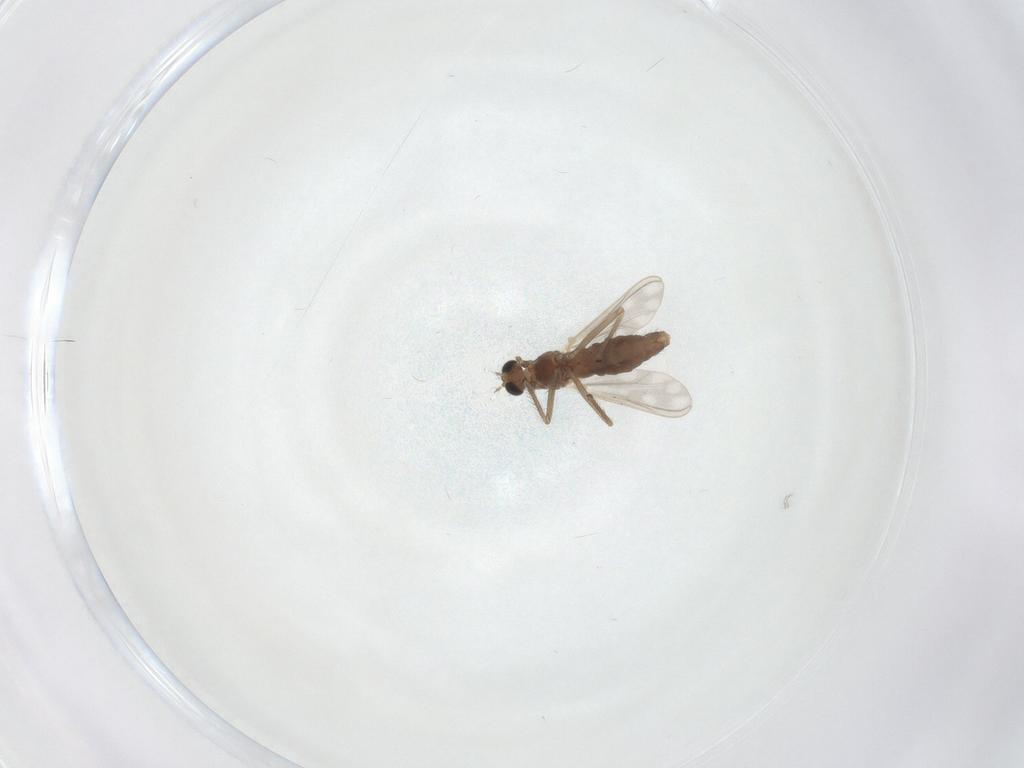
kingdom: Animalia
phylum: Arthropoda
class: Insecta
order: Diptera
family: Chironomidae
